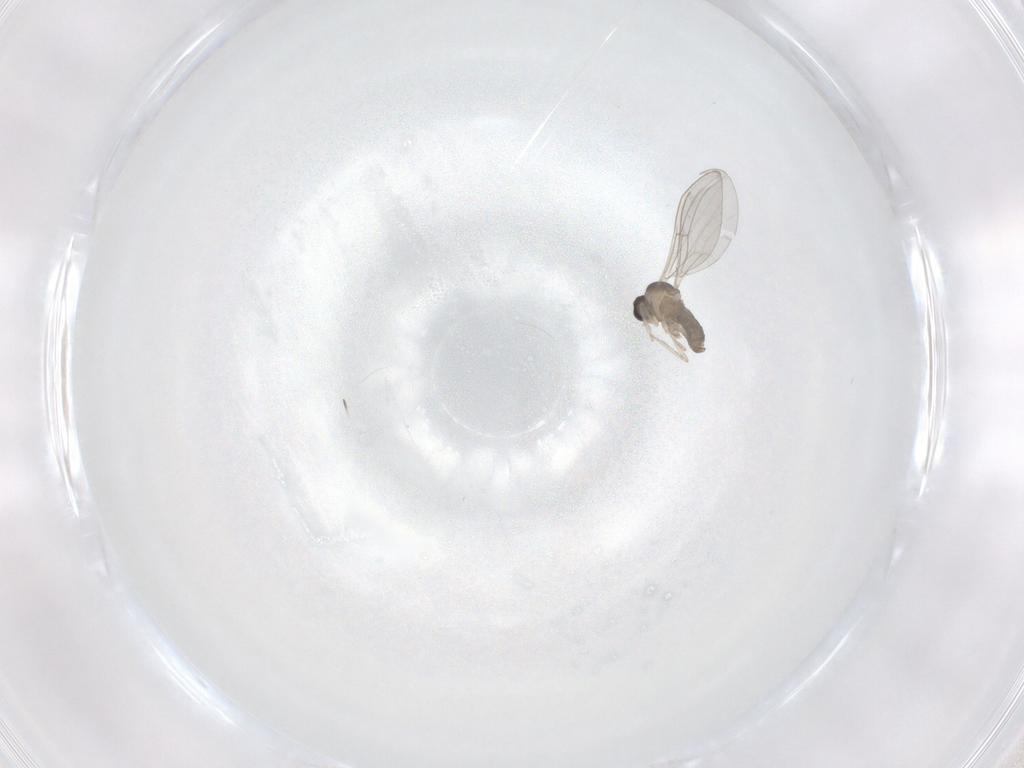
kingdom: Animalia
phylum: Arthropoda
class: Insecta
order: Diptera
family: Cecidomyiidae
